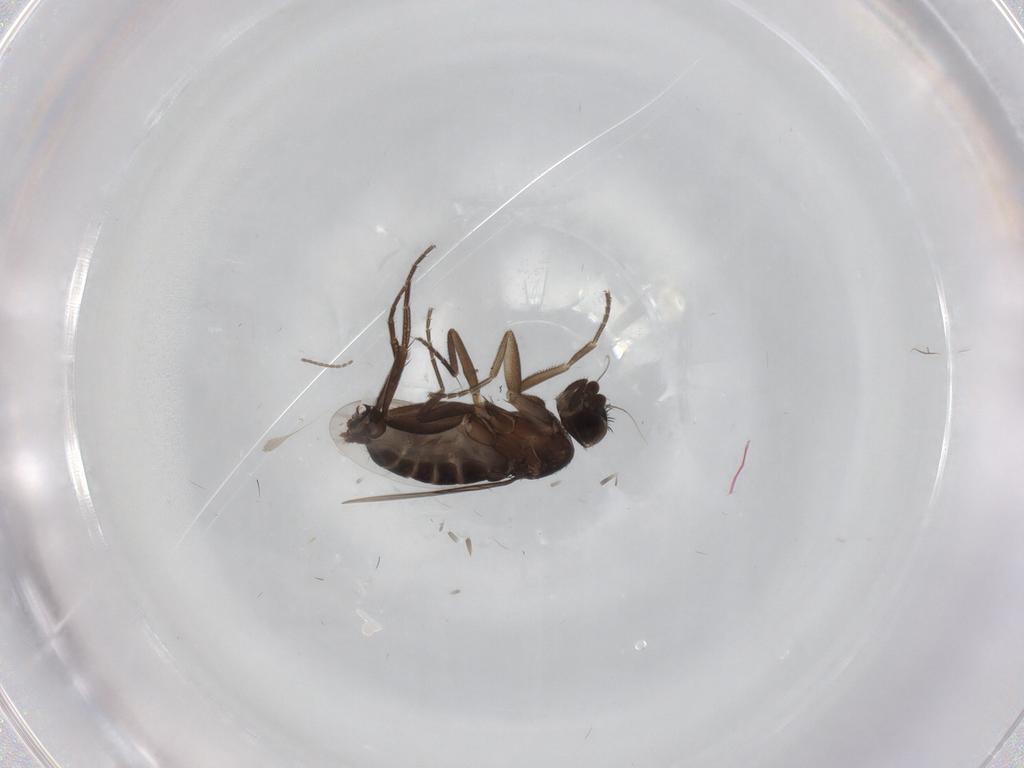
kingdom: Animalia
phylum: Arthropoda
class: Insecta
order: Diptera
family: Phoridae
